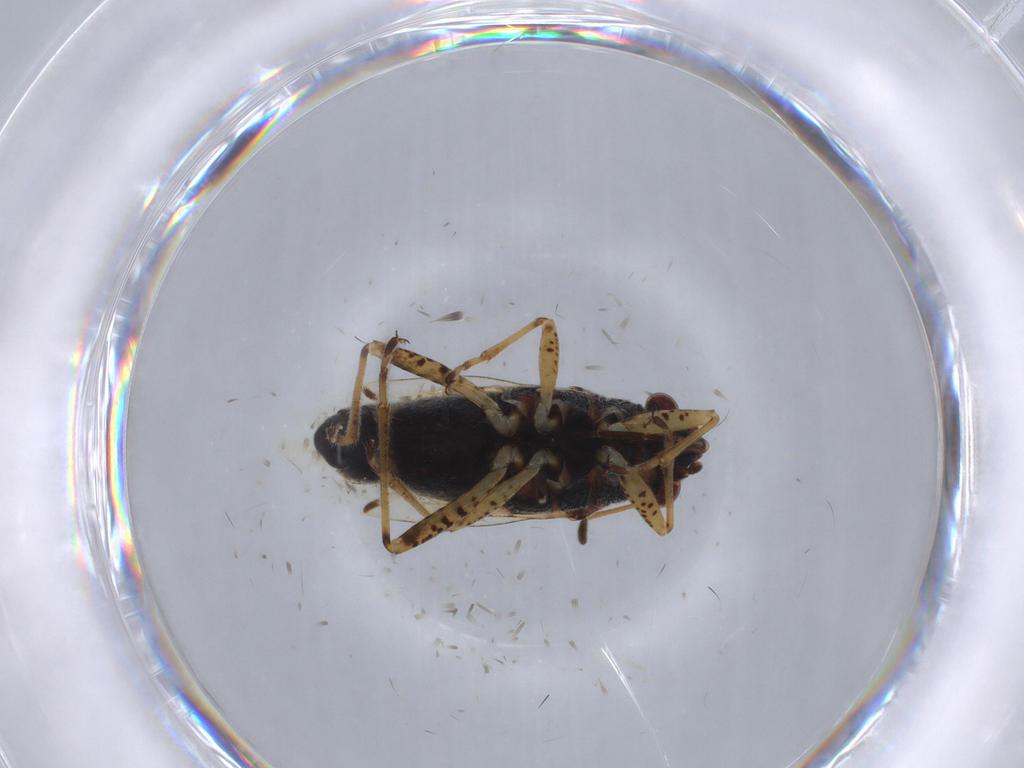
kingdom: Animalia
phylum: Arthropoda
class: Insecta
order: Hemiptera
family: Lygaeidae
